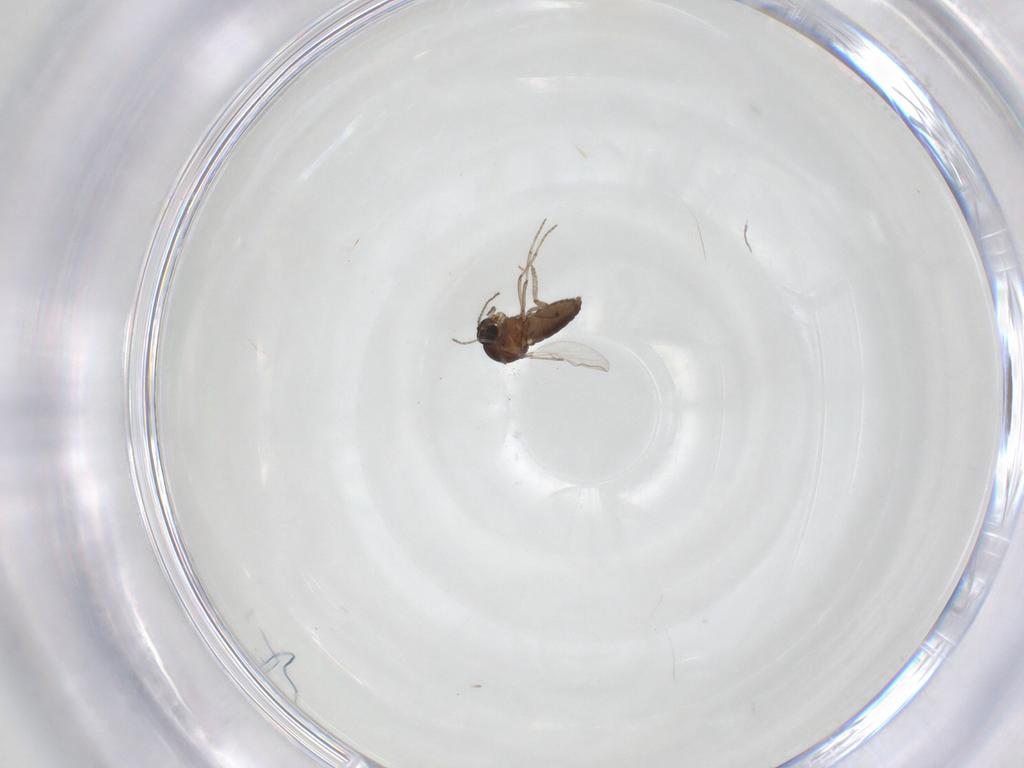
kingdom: Animalia
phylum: Arthropoda
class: Insecta
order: Diptera
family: Ceratopogonidae
